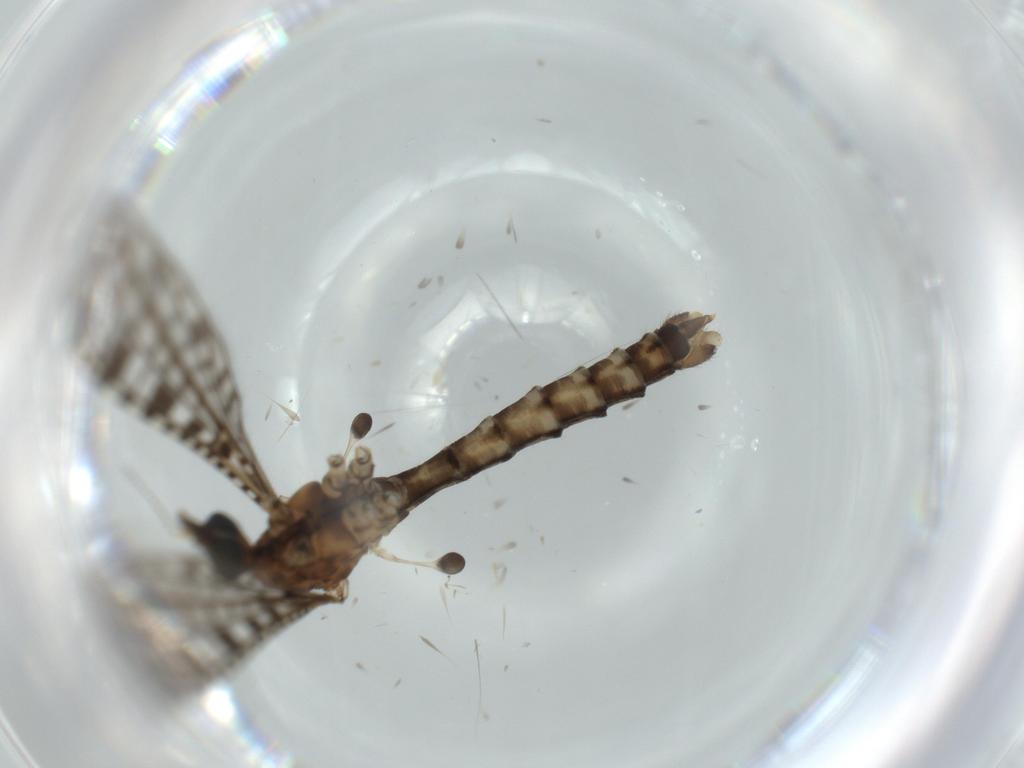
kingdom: Animalia
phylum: Arthropoda
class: Insecta
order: Diptera
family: Sciaridae
